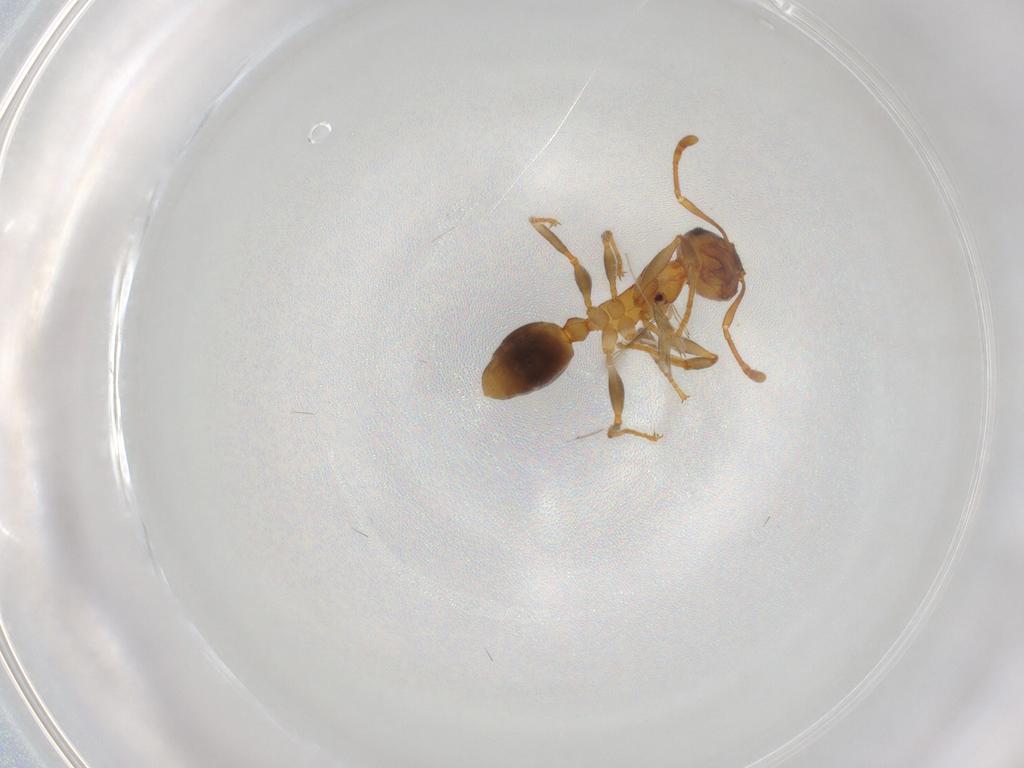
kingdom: Animalia
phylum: Arthropoda
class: Insecta
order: Hymenoptera
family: Mymaridae
